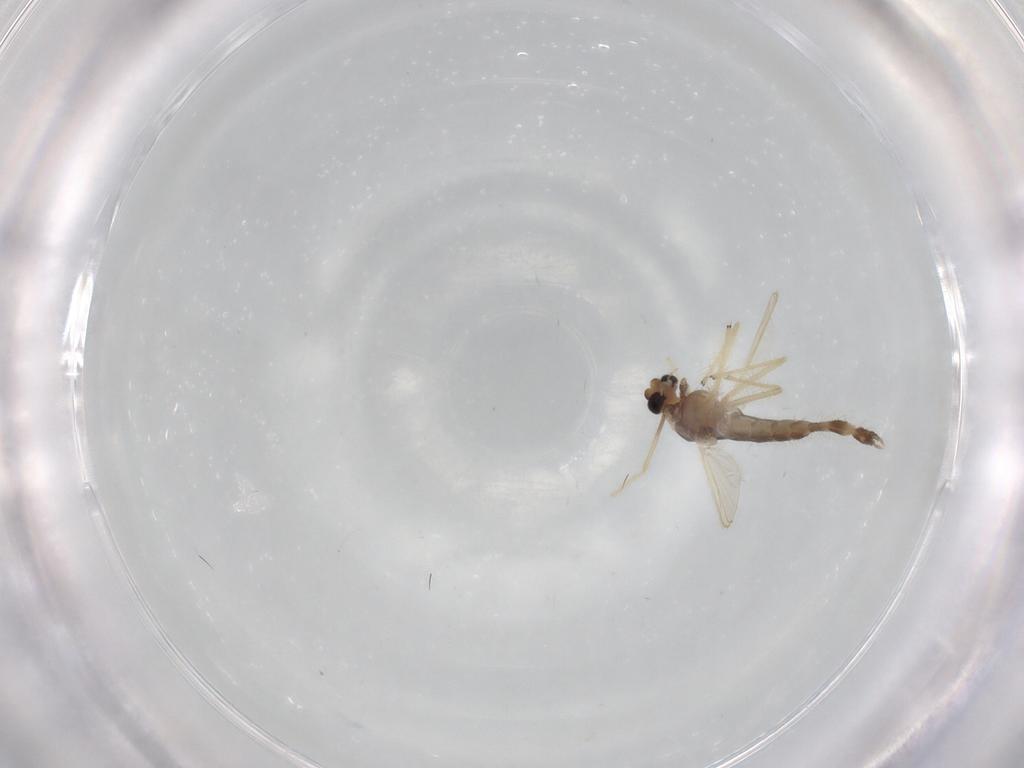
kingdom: Animalia
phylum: Arthropoda
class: Insecta
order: Diptera
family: Chironomidae
